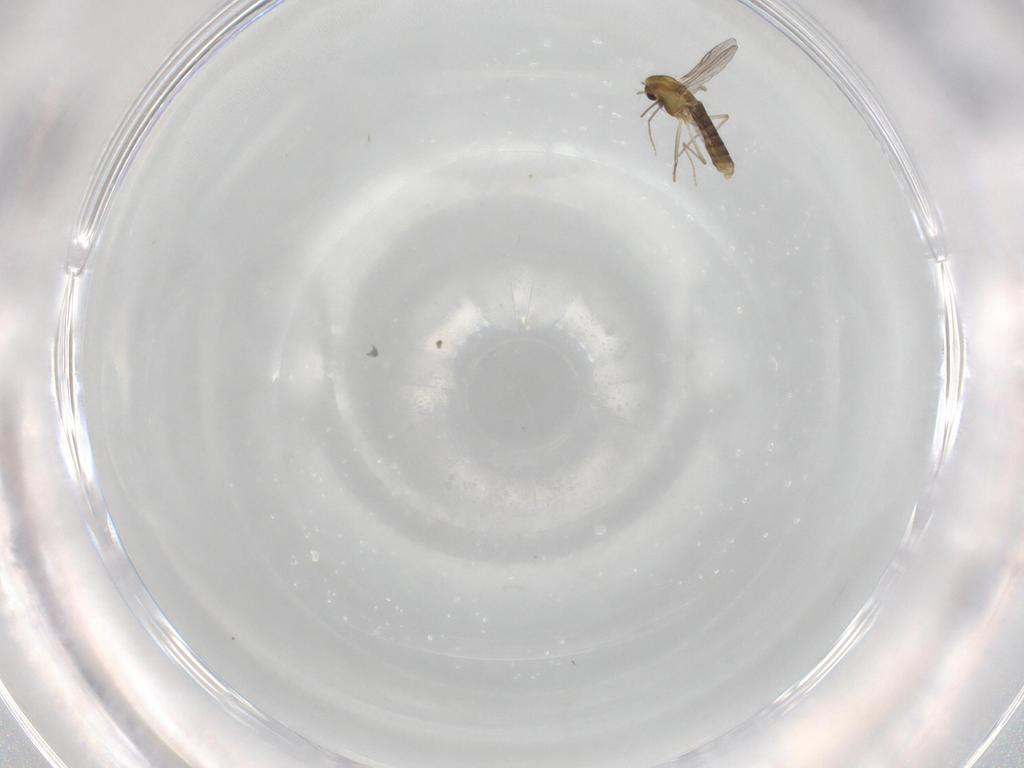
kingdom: Animalia
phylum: Arthropoda
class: Insecta
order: Diptera
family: Chironomidae
